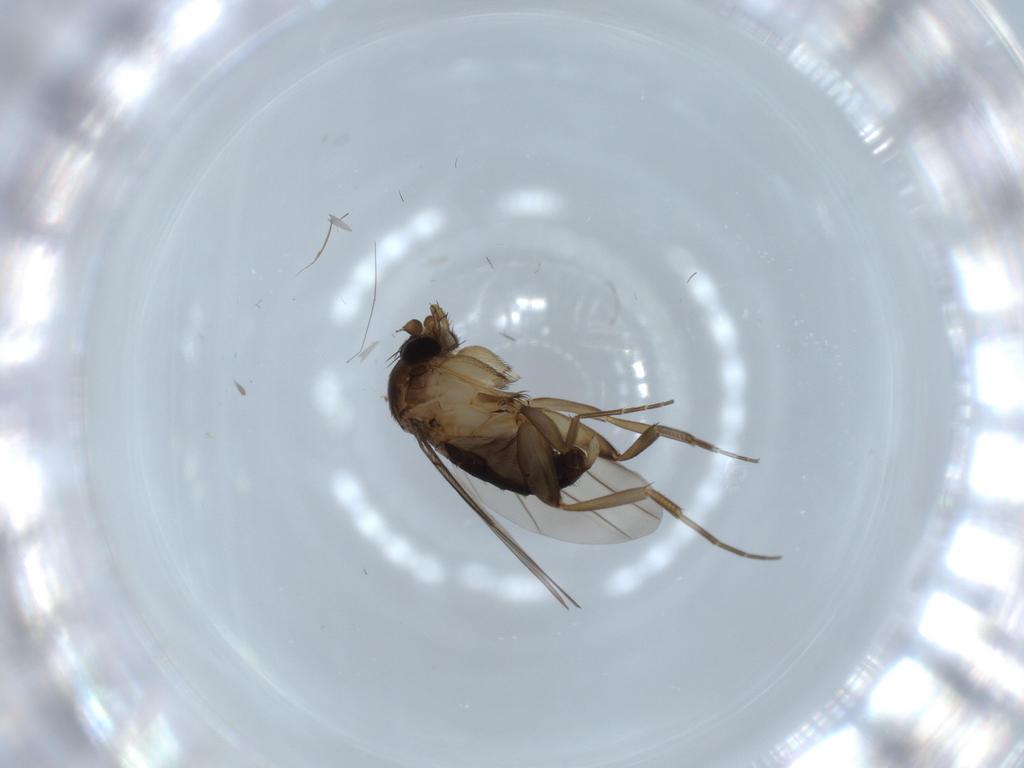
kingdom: Animalia
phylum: Arthropoda
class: Insecta
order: Diptera
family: Phoridae
